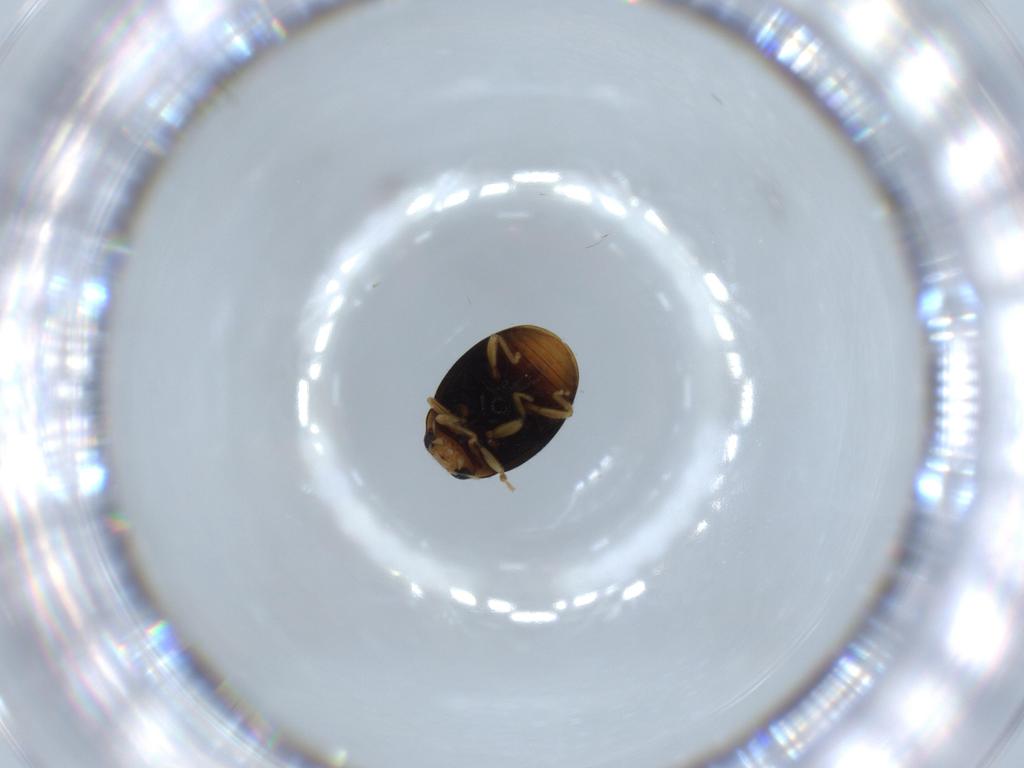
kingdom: Animalia
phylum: Arthropoda
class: Insecta
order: Coleoptera
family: Coccinellidae
